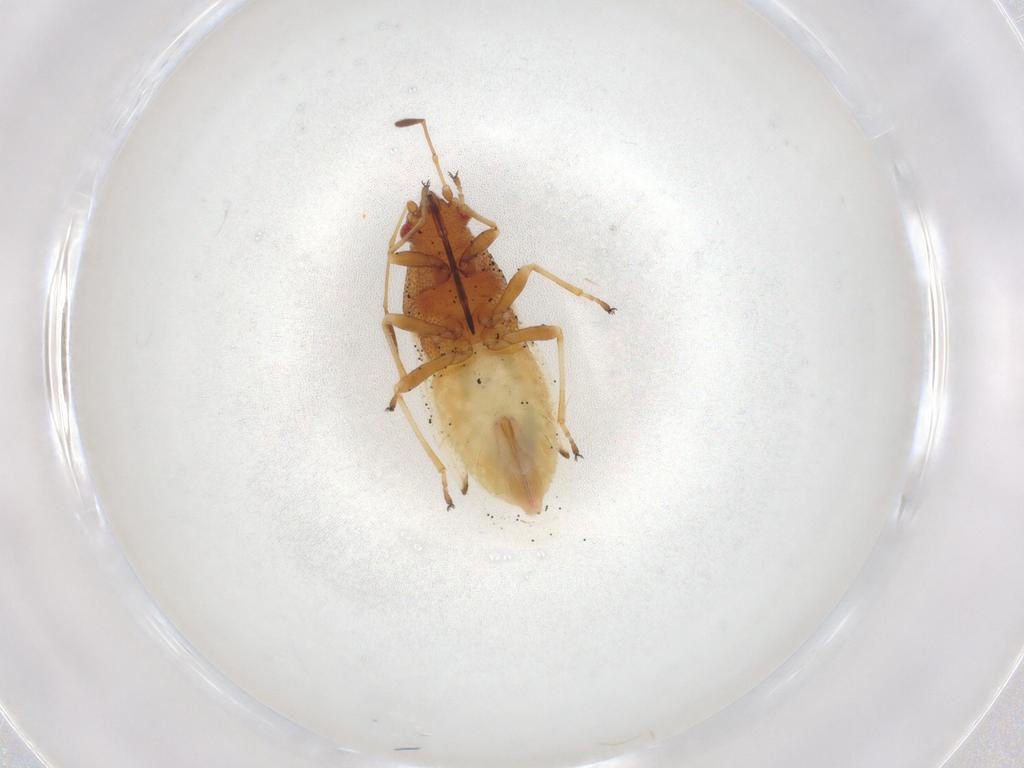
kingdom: Animalia
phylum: Arthropoda
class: Insecta
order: Hemiptera
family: Cymidae
